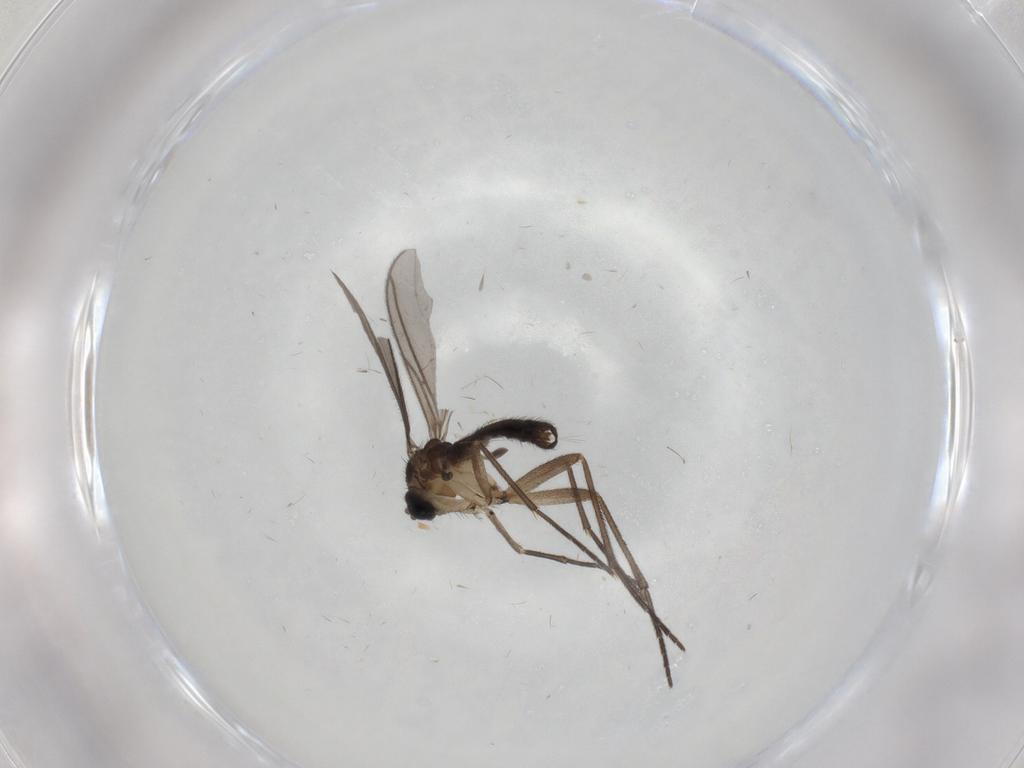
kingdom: Animalia
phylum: Arthropoda
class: Insecta
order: Diptera
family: Sciaridae
